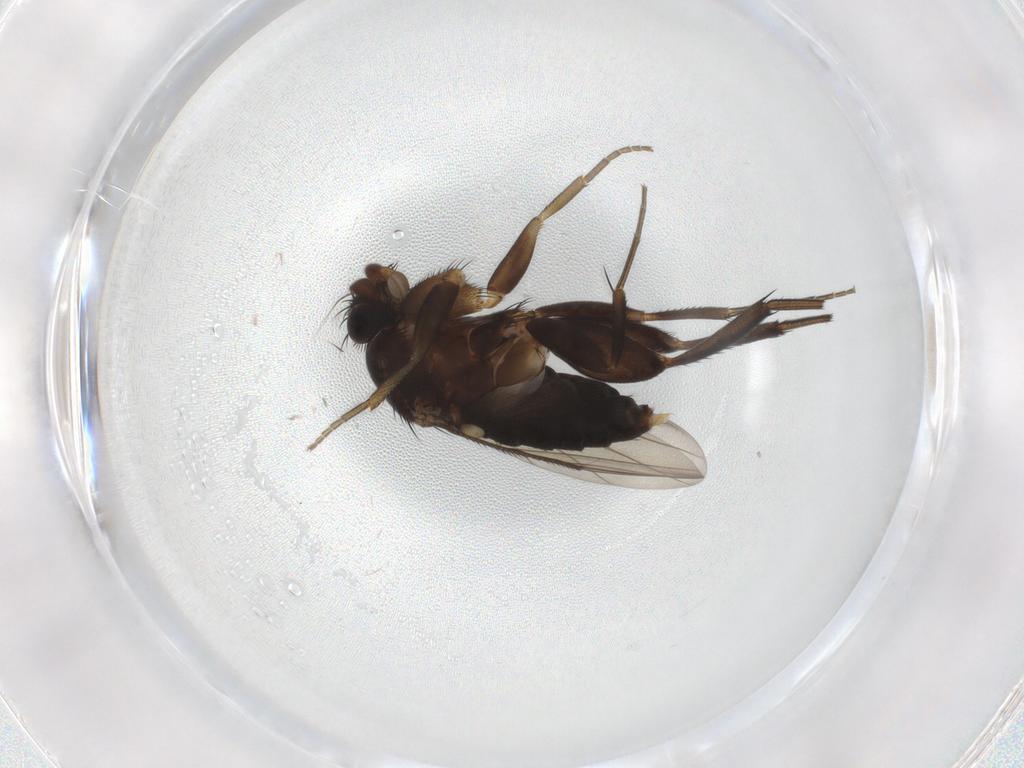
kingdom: Animalia
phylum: Arthropoda
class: Insecta
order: Diptera
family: Phoridae
